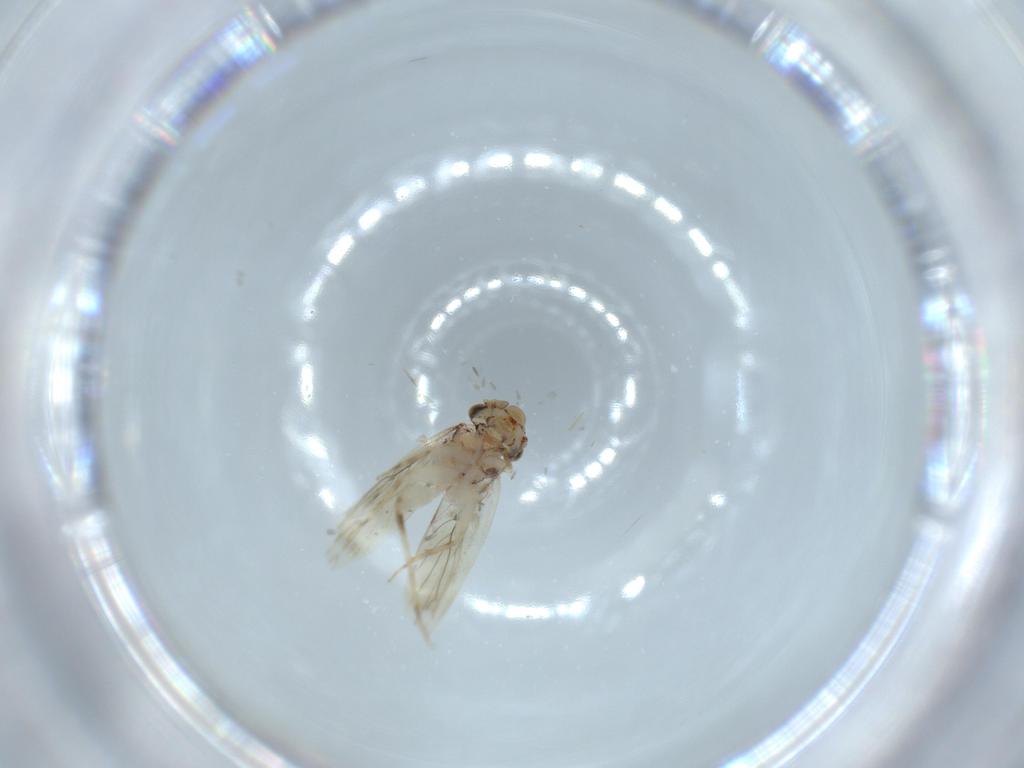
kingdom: Animalia
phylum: Arthropoda
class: Insecta
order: Psocodea
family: Lepidopsocidae
